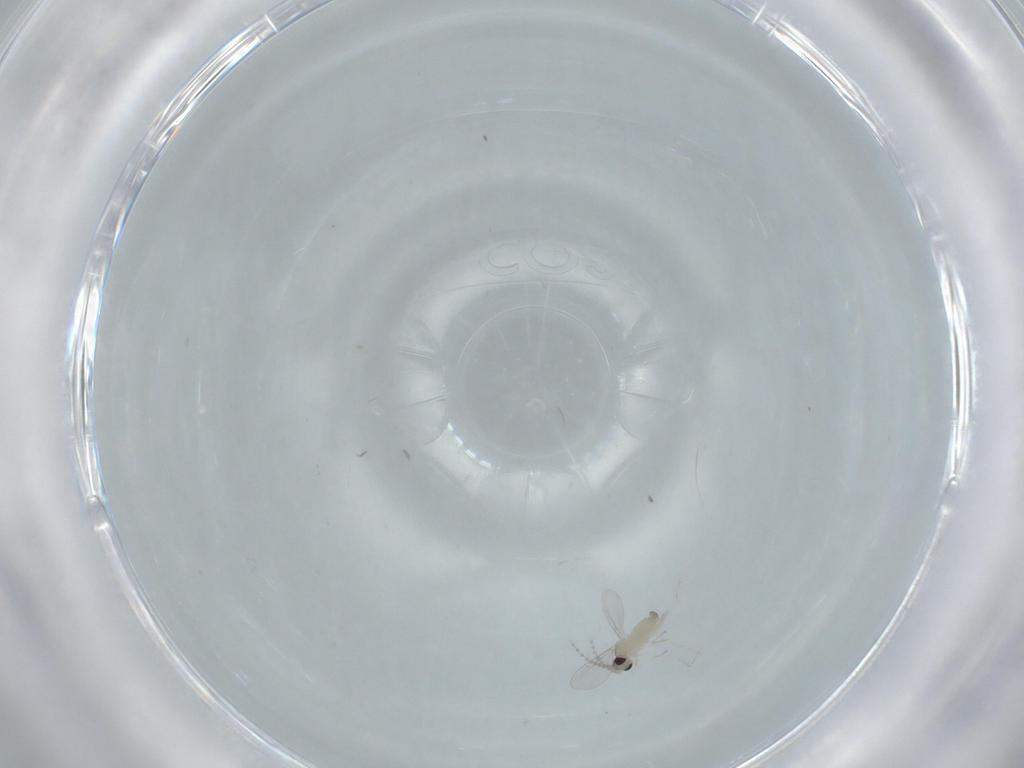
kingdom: Animalia
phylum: Arthropoda
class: Insecta
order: Diptera
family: Cecidomyiidae
